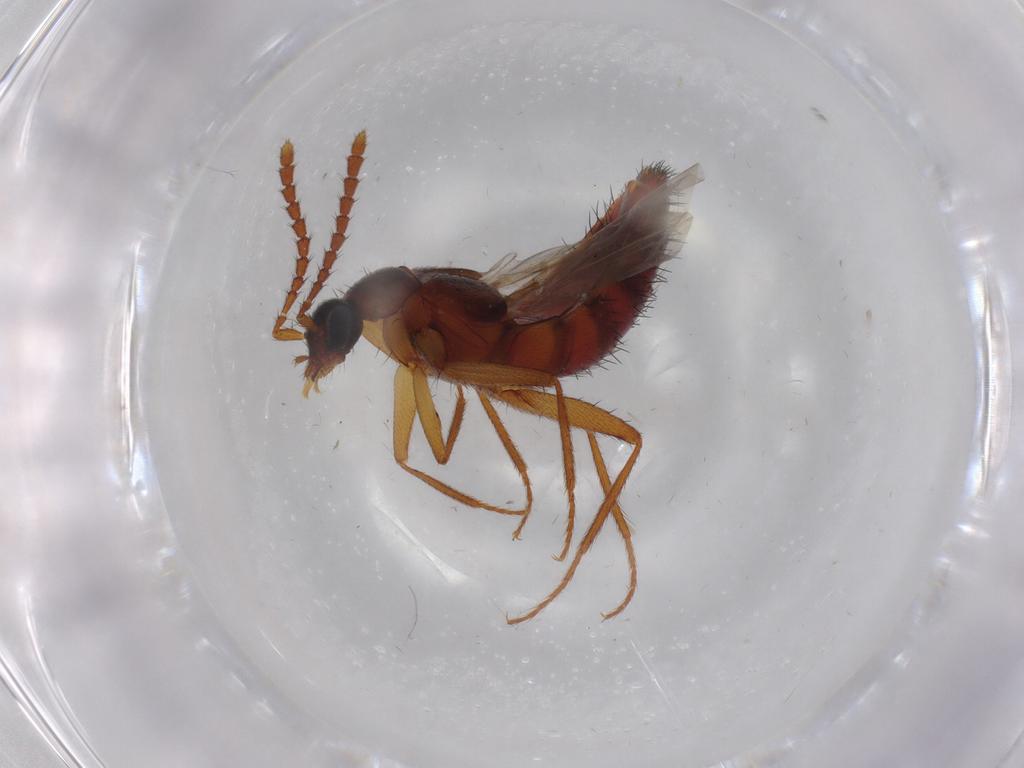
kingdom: Animalia
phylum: Arthropoda
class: Insecta
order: Coleoptera
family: Staphylinidae
